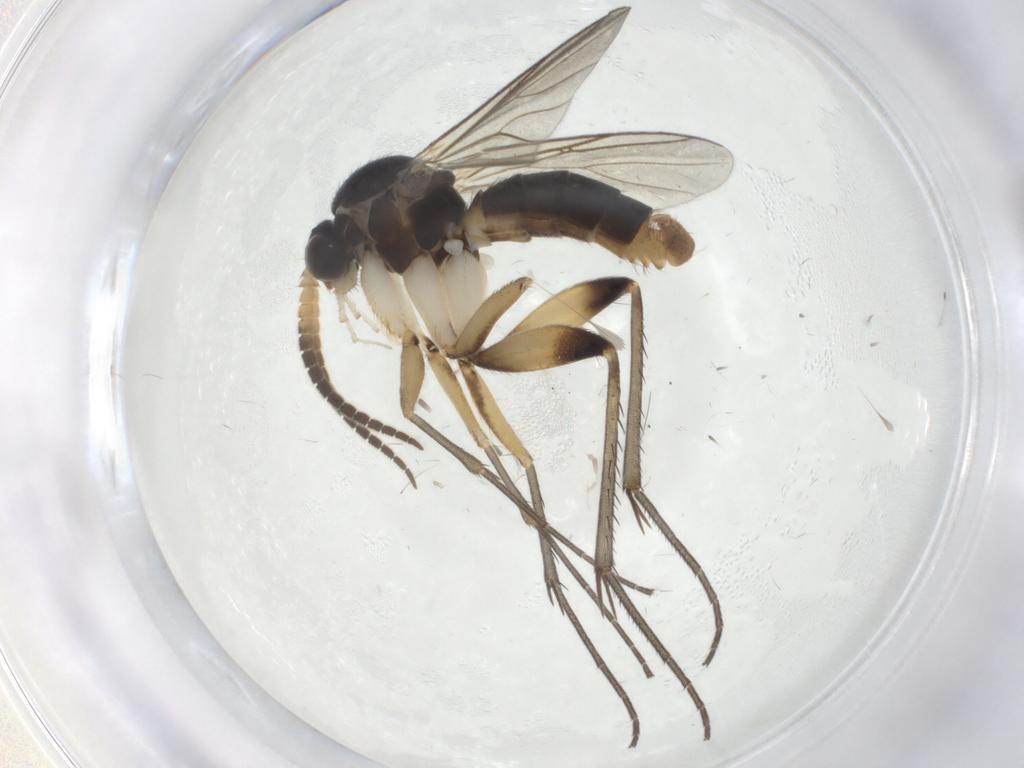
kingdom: Animalia
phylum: Arthropoda
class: Insecta
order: Diptera
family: Mycetophilidae
